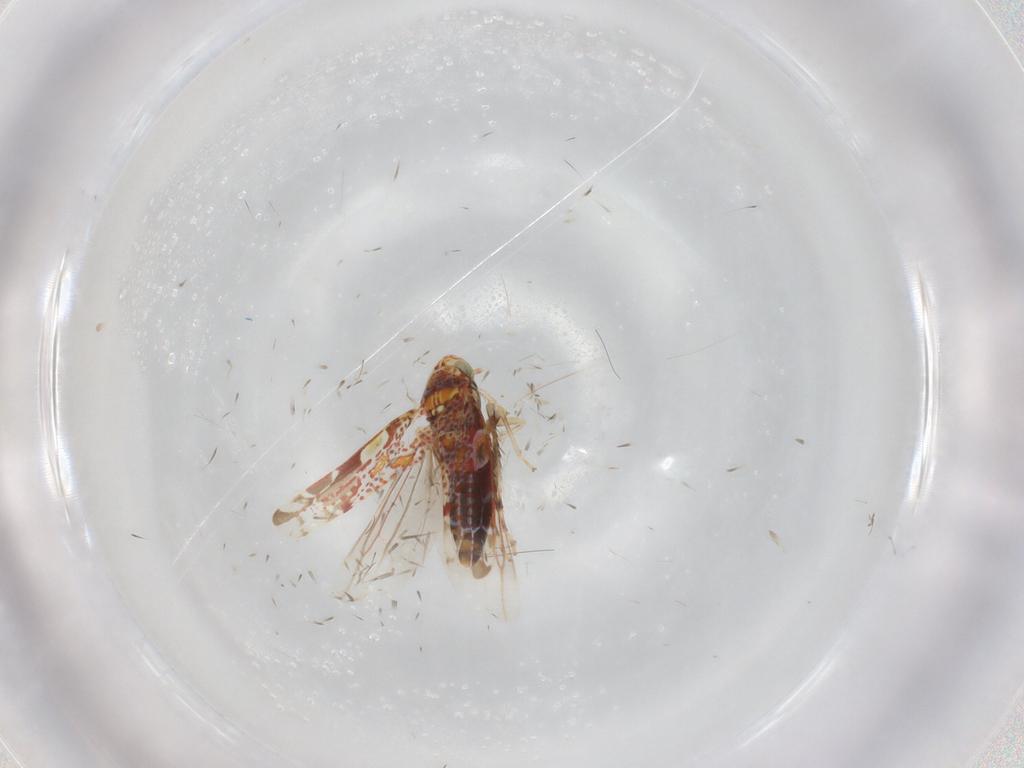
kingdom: Animalia
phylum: Arthropoda
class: Insecta
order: Hemiptera
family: Cicadellidae
